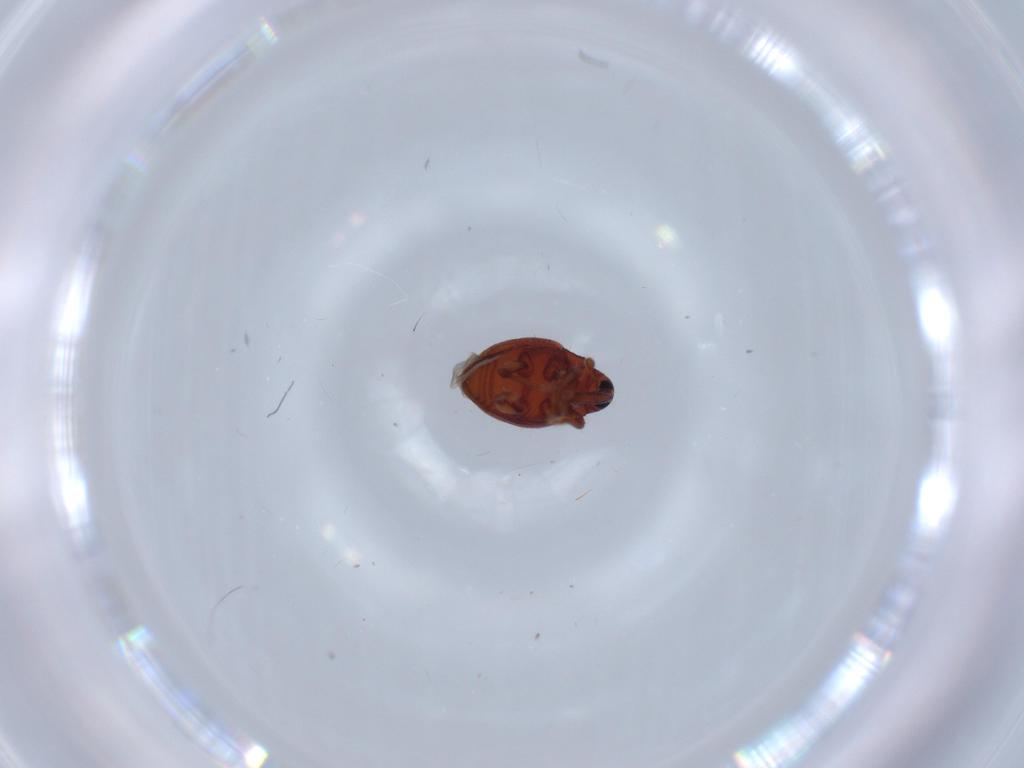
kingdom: Animalia
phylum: Arthropoda
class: Insecta
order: Coleoptera
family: Curculionidae
